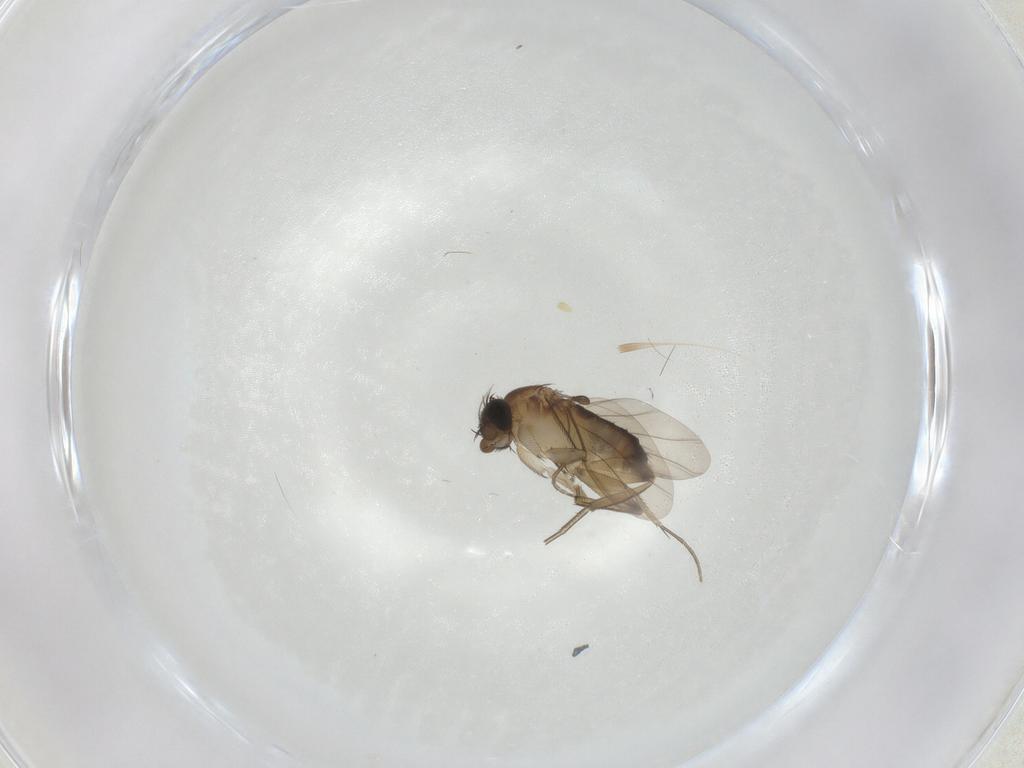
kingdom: Animalia
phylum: Arthropoda
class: Insecta
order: Diptera
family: Phoridae
